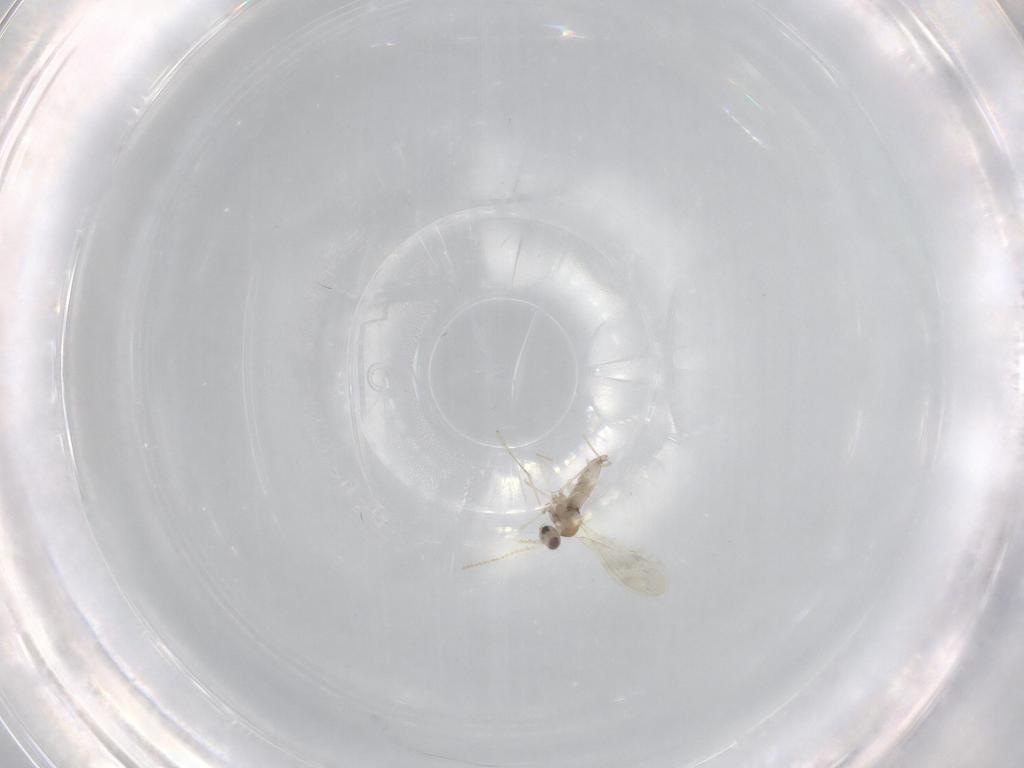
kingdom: Animalia
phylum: Arthropoda
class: Insecta
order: Diptera
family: Cecidomyiidae
